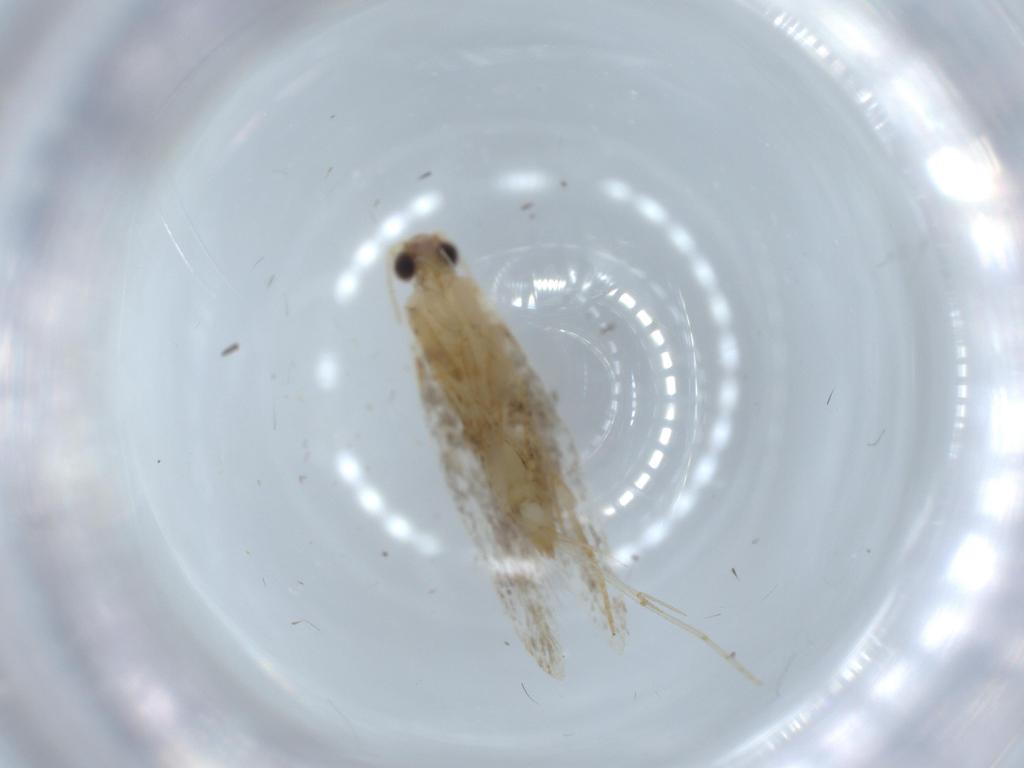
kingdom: Animalia
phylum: Arthropoda
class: Insecta
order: Lepidoptera
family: Tineidae
